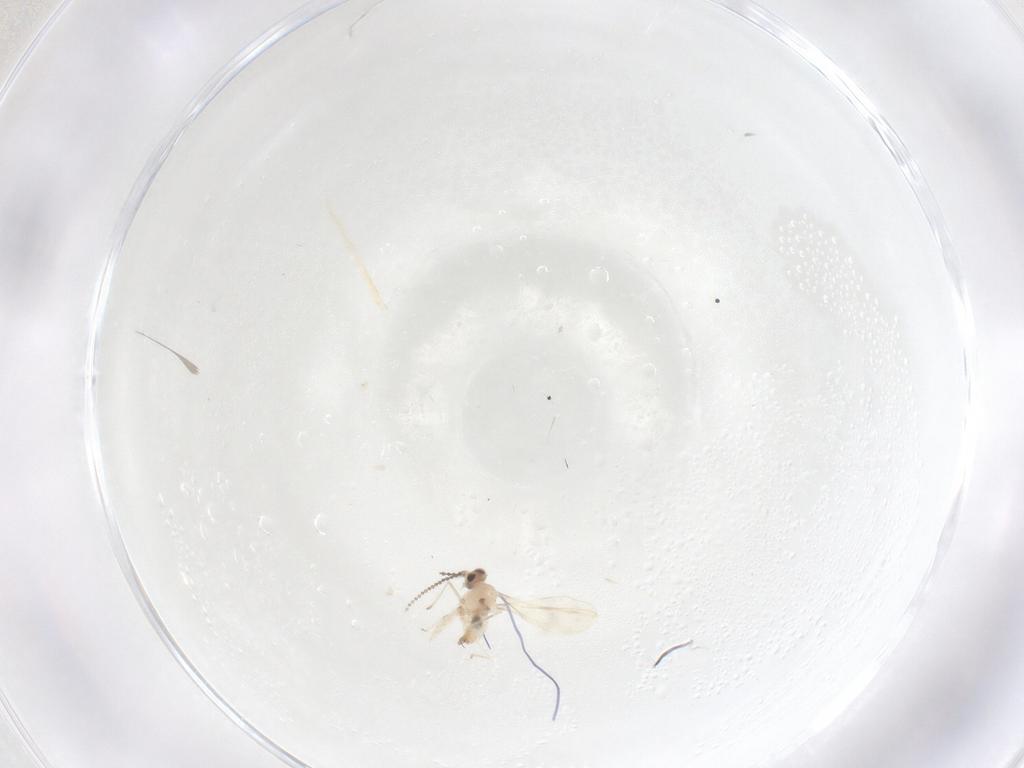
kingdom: Animalia
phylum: Arthropoda
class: Insecta
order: Diptera
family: Cecidomyiidae
